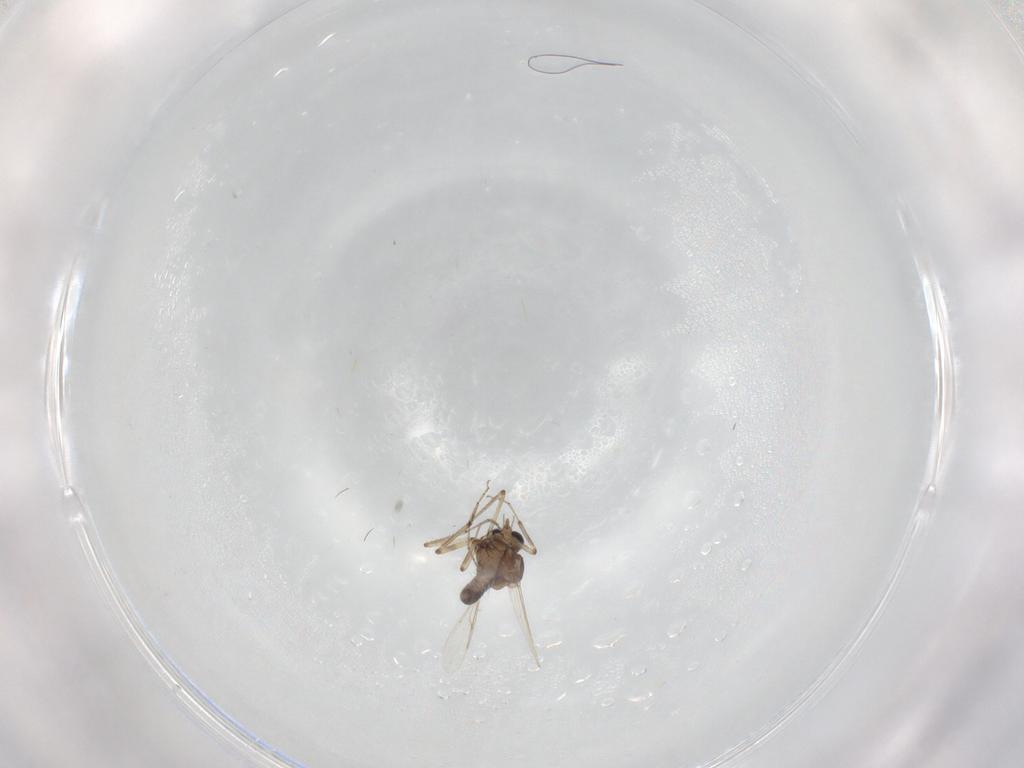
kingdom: Animalia
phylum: Arthropoda
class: Insecta
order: Diptera
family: Ceratopogonidae
